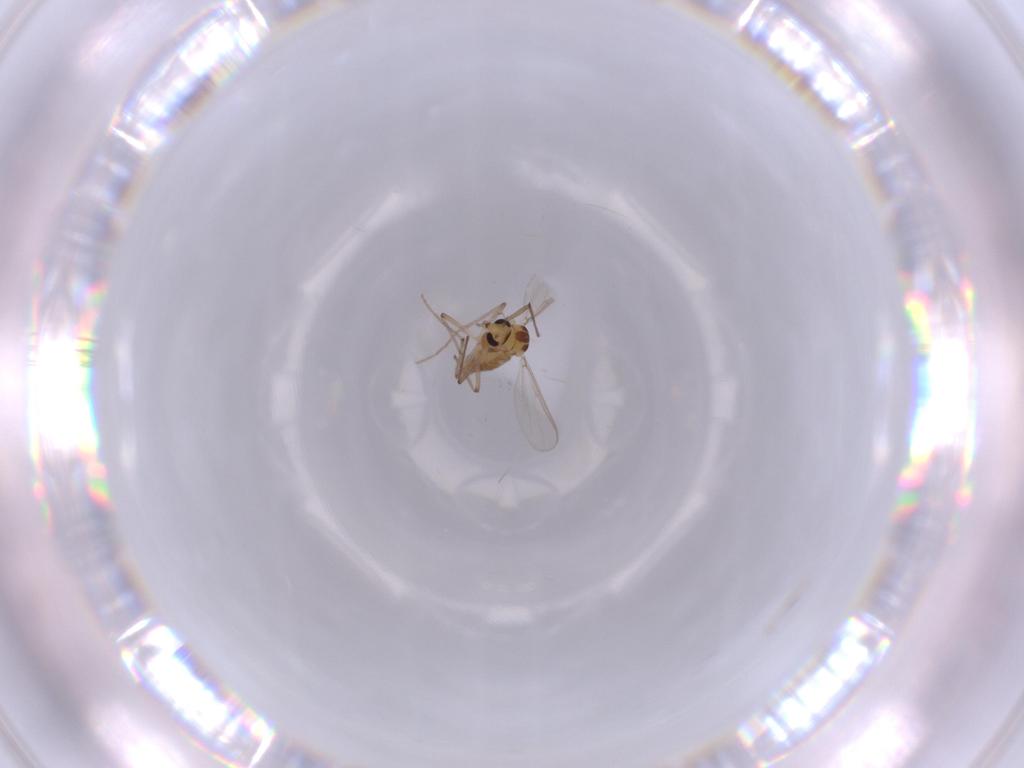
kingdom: Animalia
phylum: Arthropoda
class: Insecta
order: Diptera
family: Chironomidae
